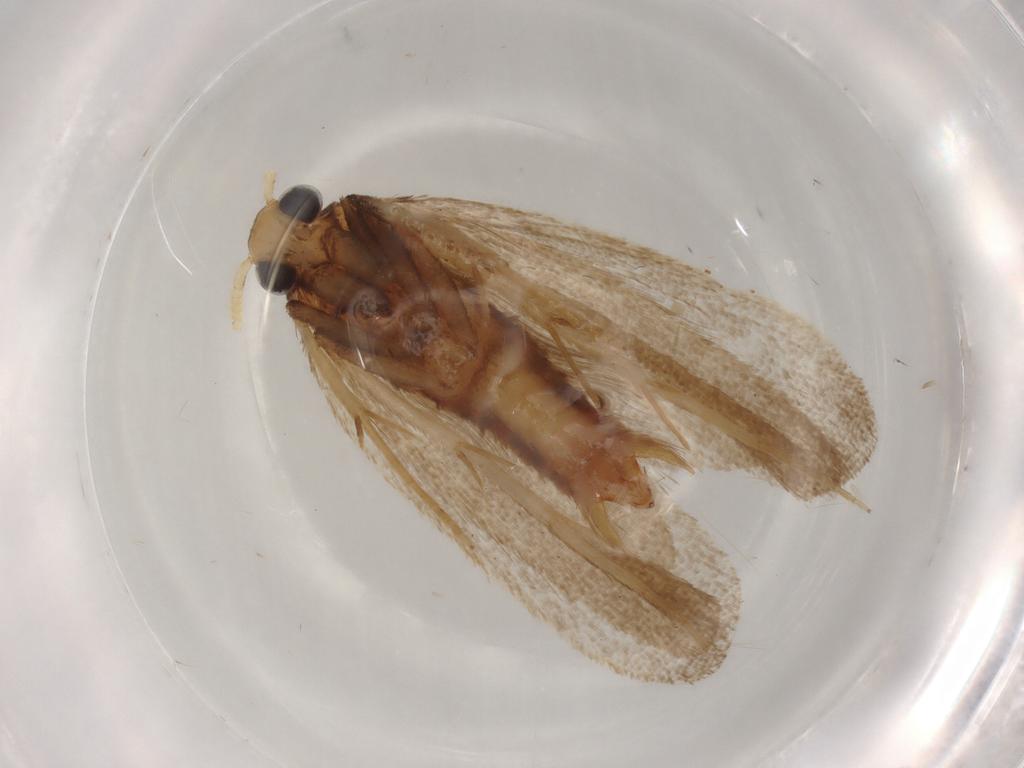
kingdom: Animalia
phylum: Arthropoda
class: Insecta
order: Lepidoptera
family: Lecithoceridae
